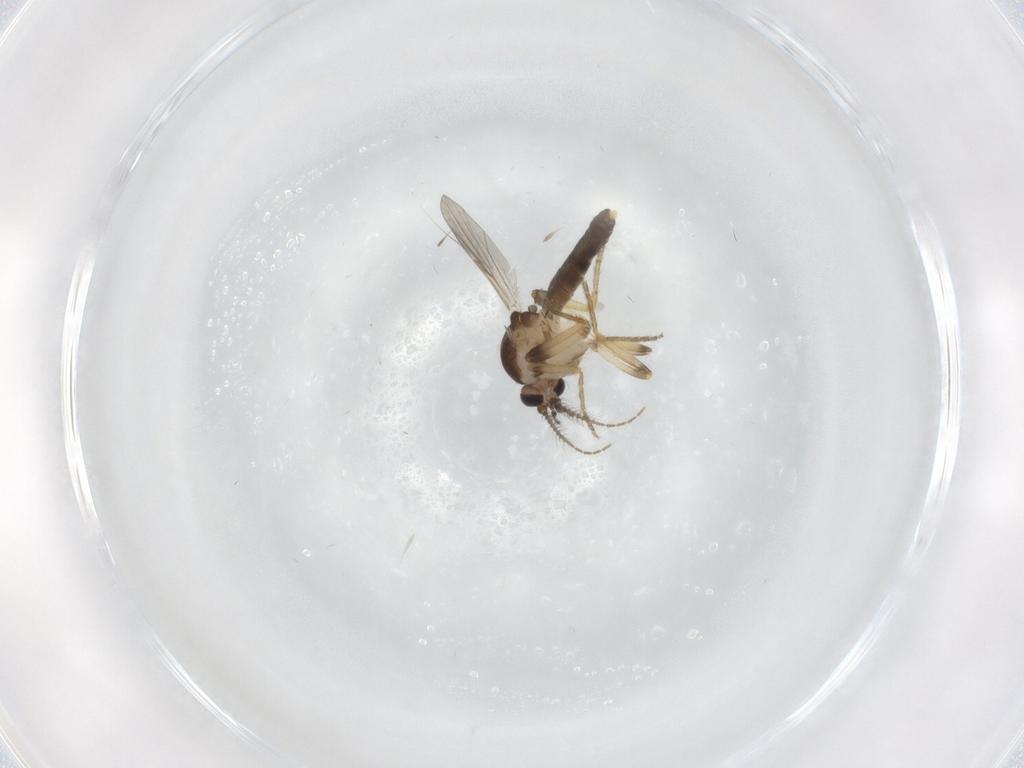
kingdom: Animalia
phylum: Arthropoda
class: Insecta
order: Diptera
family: Ceratopogonidae
